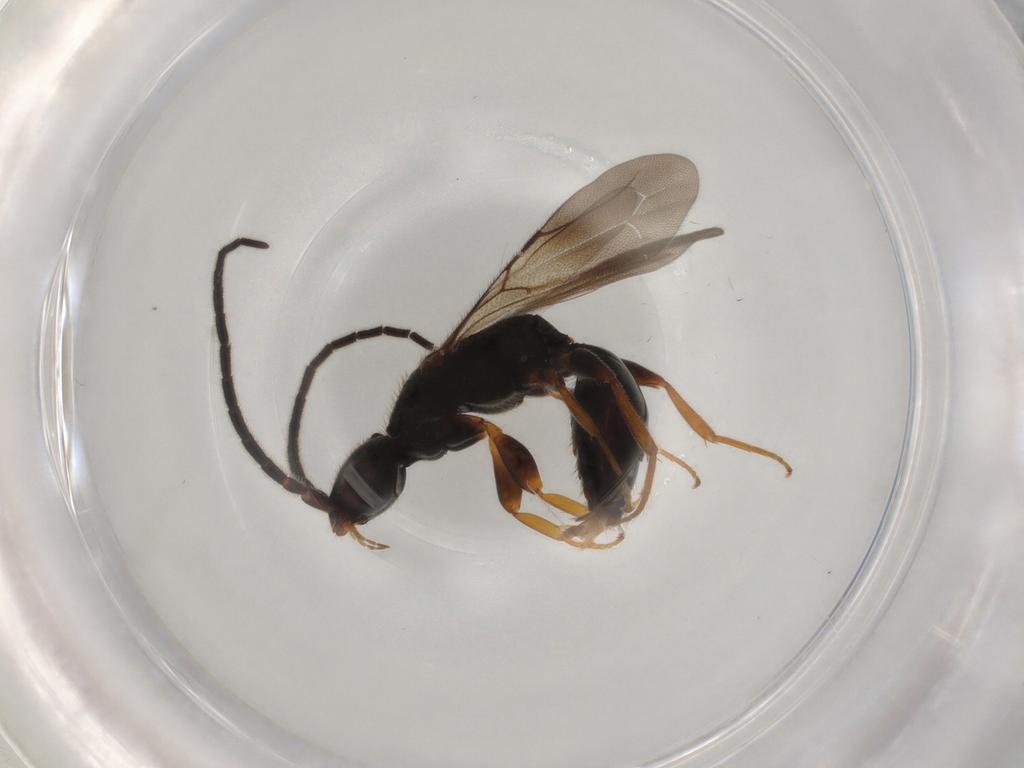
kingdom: Animalia
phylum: Arthropoda
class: Insecta
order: Hymenoptera
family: Bethylidae
